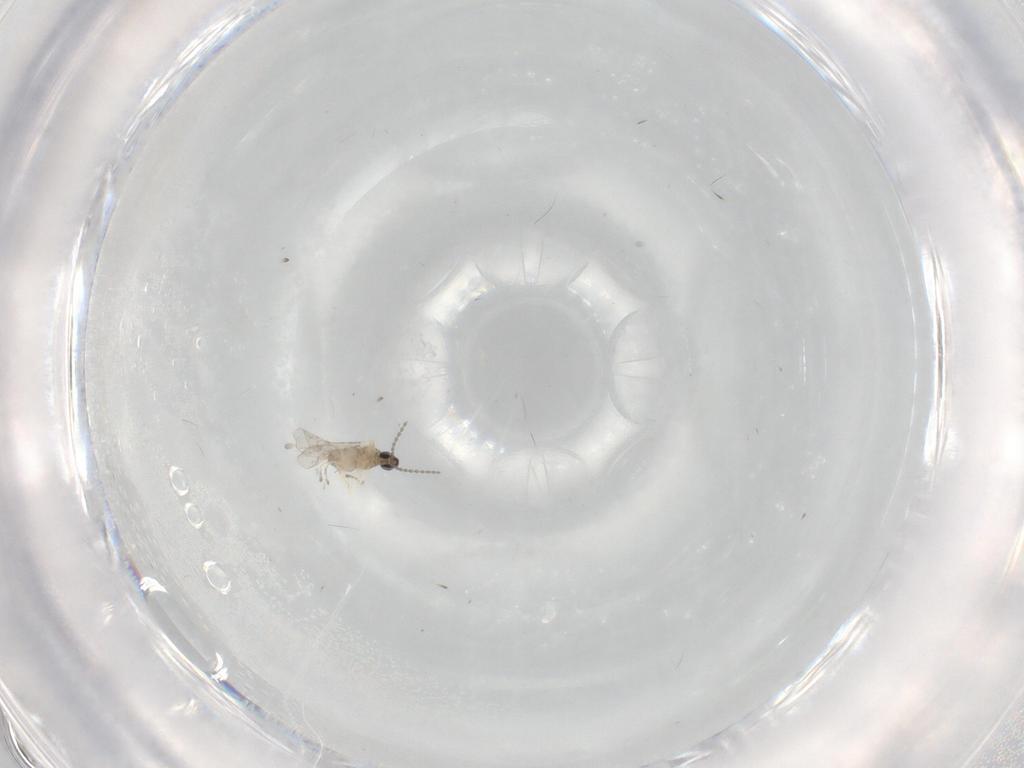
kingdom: Animalia
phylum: Arthropoda
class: Insecta
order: Diptera
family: Cecidomyiidae
